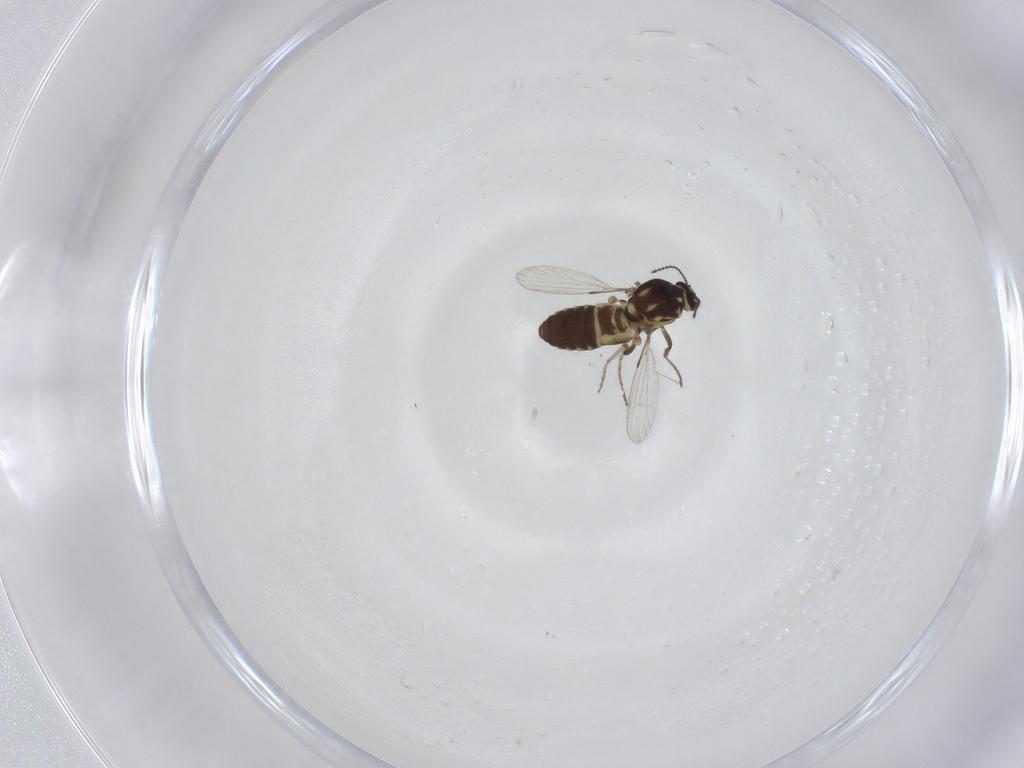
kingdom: Animalia
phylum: Arthropoda
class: Insecta
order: Diptera
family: Ceratopogonidae
